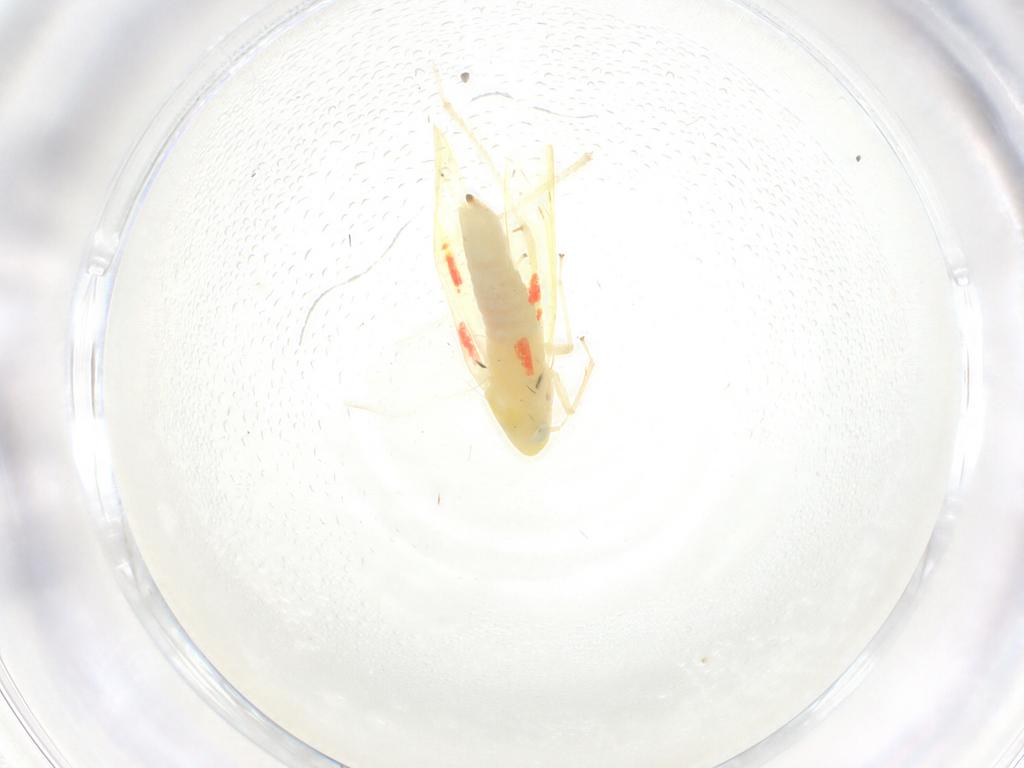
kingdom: Animalia
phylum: Arthropoda
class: Insecta
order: Hemiptera
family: Cicadellidae
